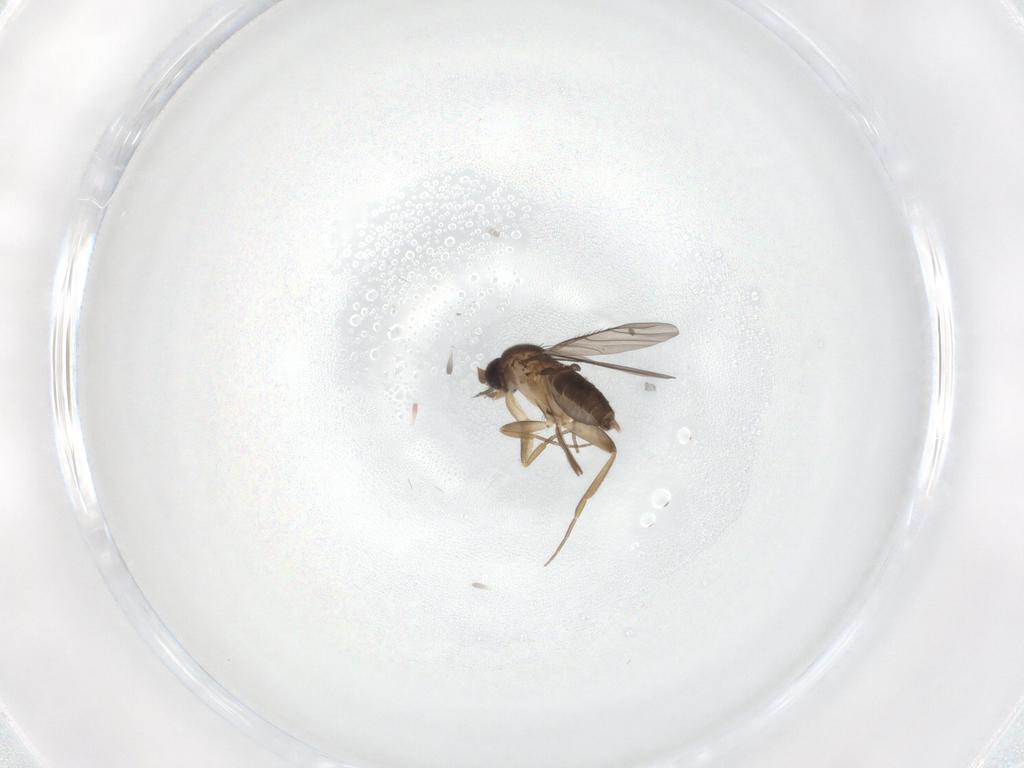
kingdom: Animalia
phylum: Arthropoda
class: Insecta
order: Diptera
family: Phoridae
